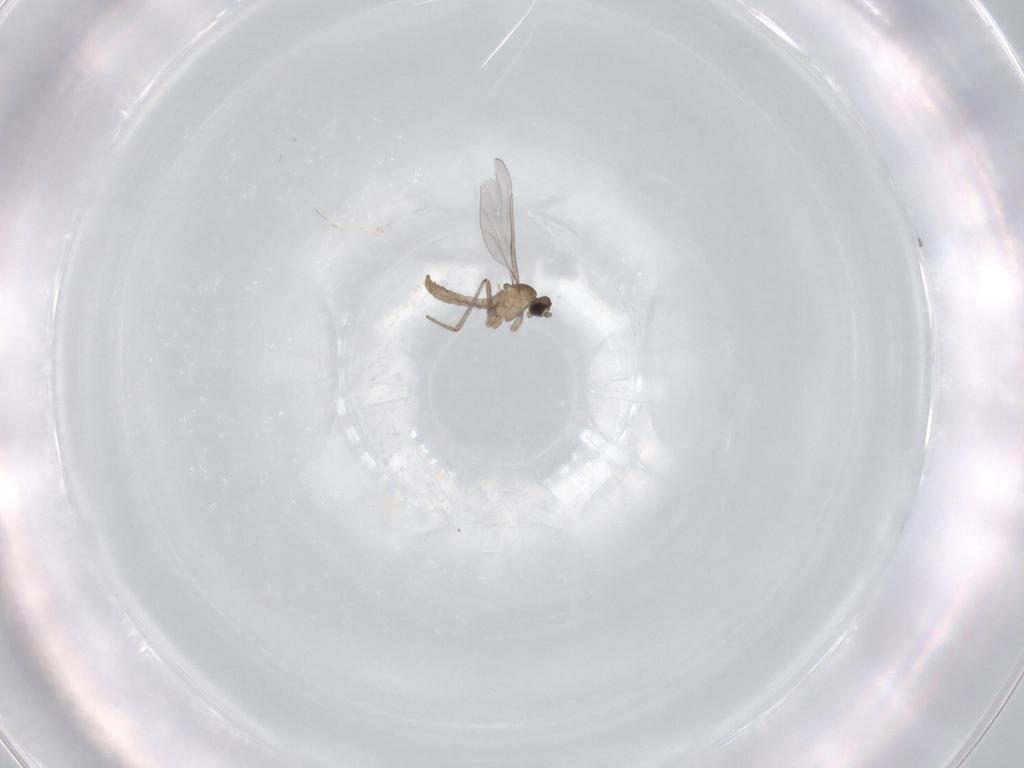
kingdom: Animalia
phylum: Arthropoda
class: Insecta
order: Diptera
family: Cecidomyiidae
